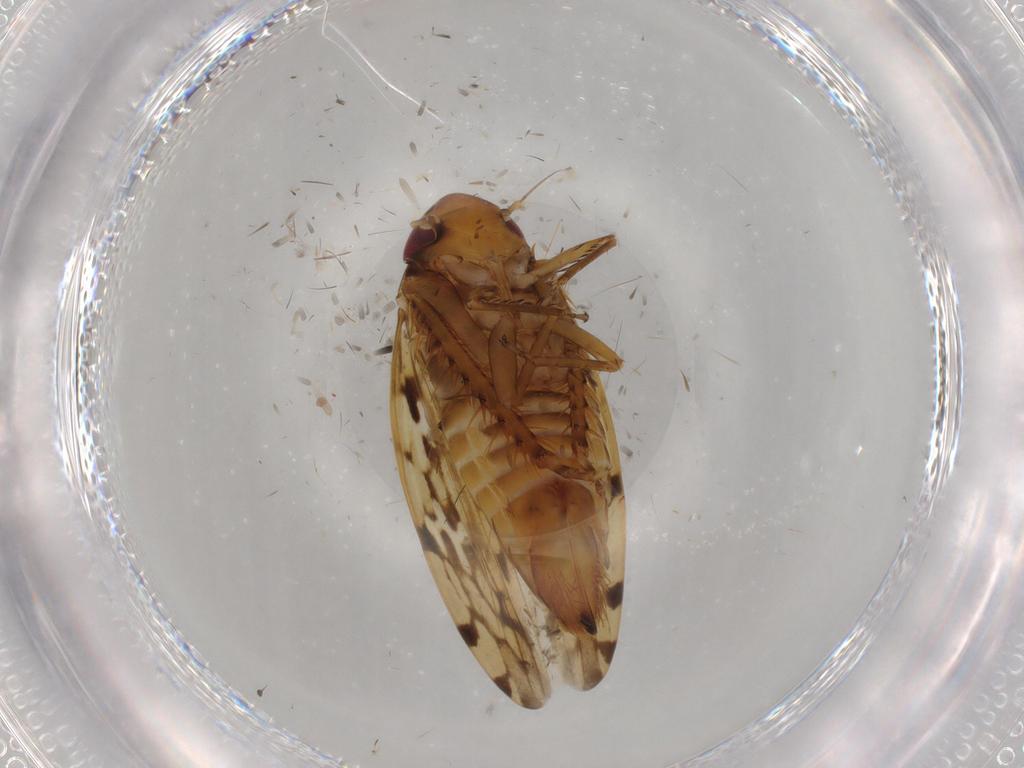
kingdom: Animalia
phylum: Arthropoda
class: Insecta
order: Hemiptera
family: Cicadellidae
